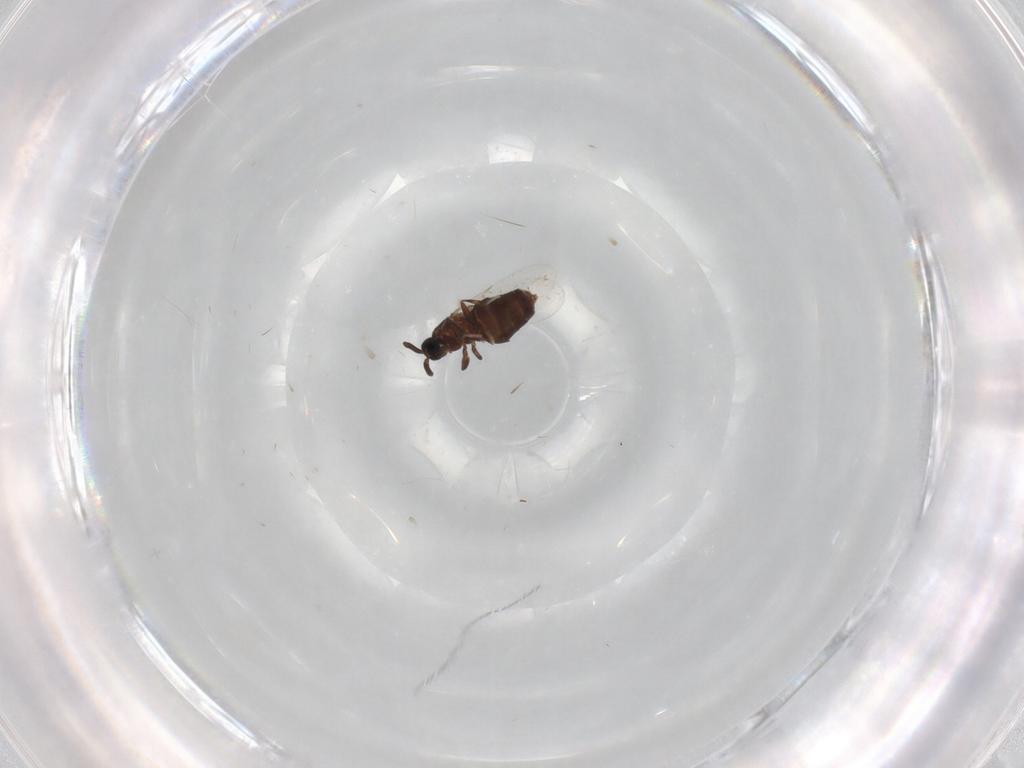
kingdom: Animalia
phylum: Arthropoda
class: Insecta
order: Diptera
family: Scatopsidae
